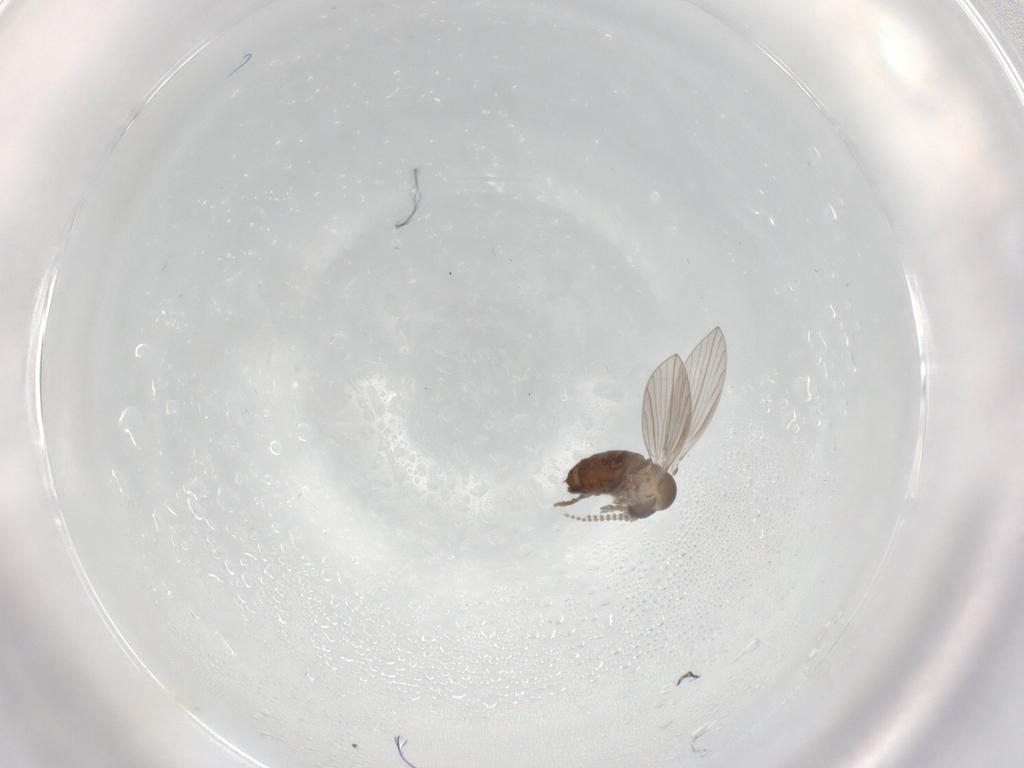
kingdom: Animalia
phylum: Arthropoda
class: Insecta
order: Diptera
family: Chironomidae
